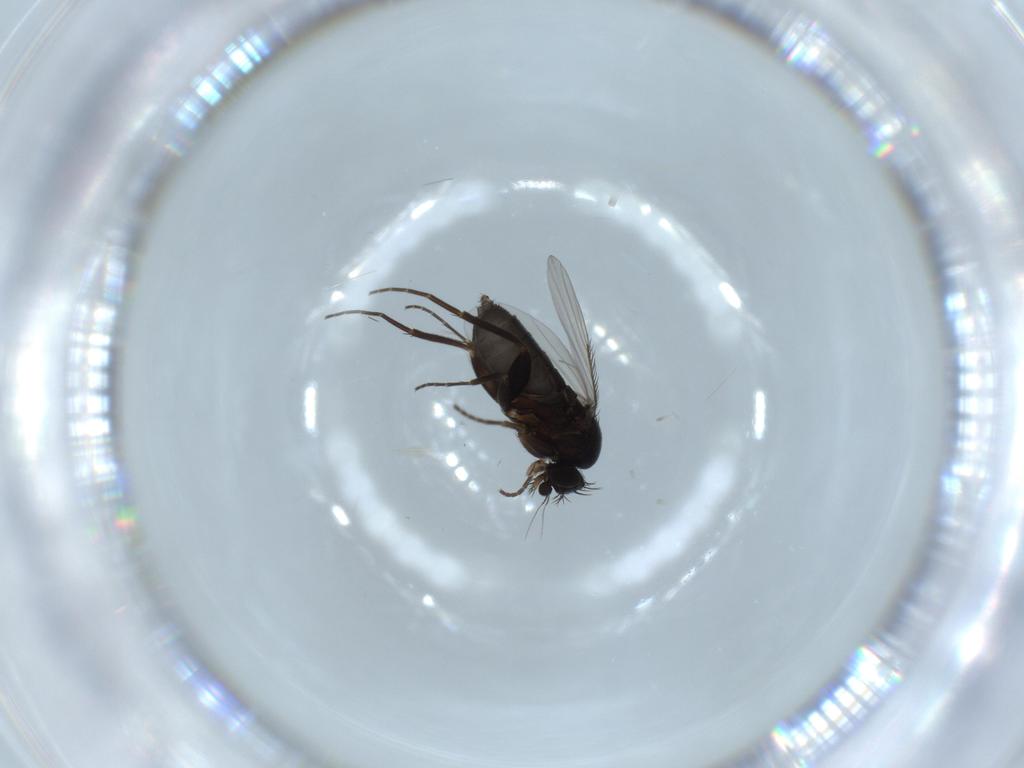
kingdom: Animalia
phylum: Arthropoda
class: Insecta
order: Diptera
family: Phoridae
